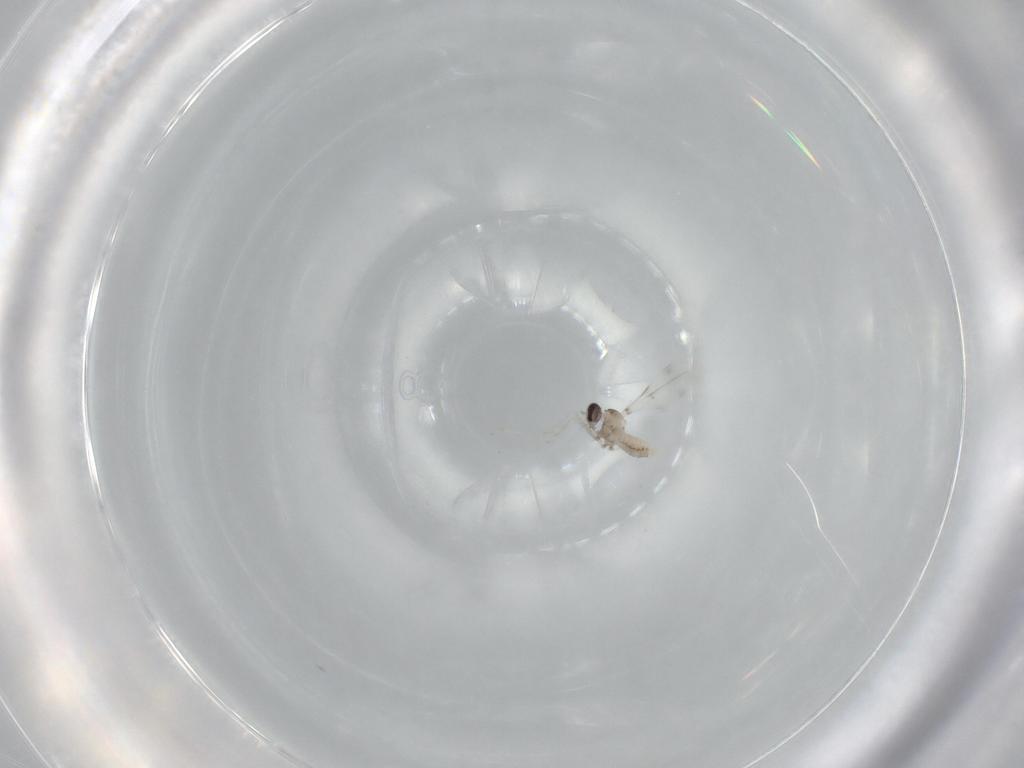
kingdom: Animalia
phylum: Arthropoda
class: Insecta
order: Diptera
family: Cecidomyiidae
